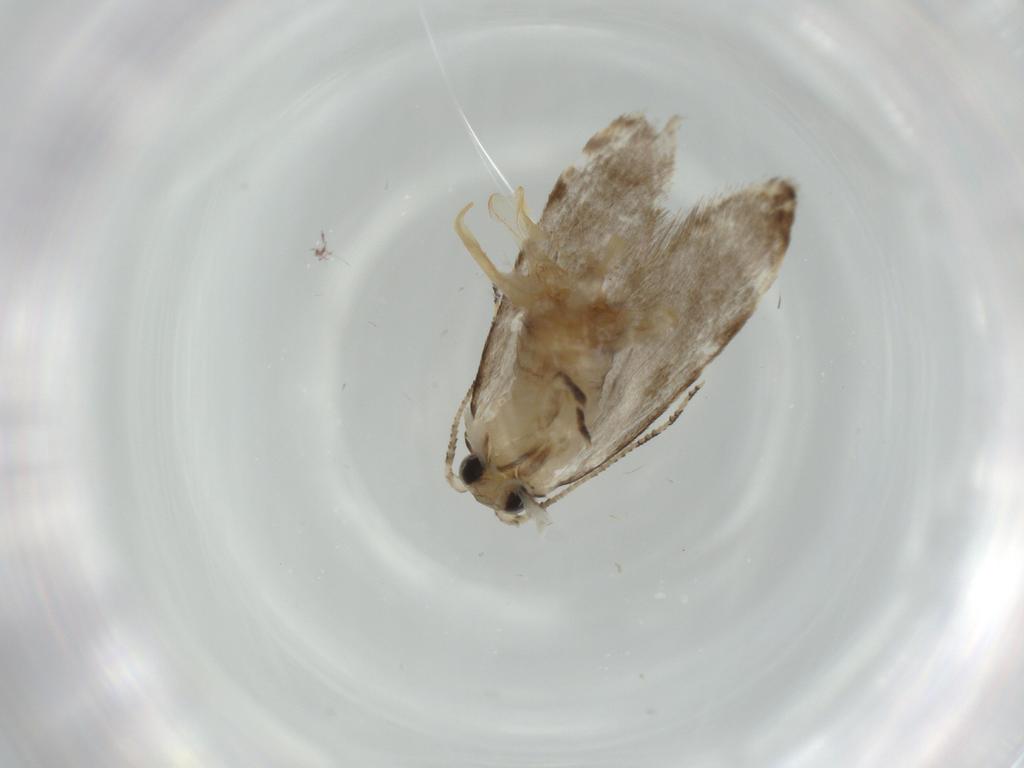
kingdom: Animalia
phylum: Arthropoda
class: Insecta
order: Lepidoptera
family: Tineidae
